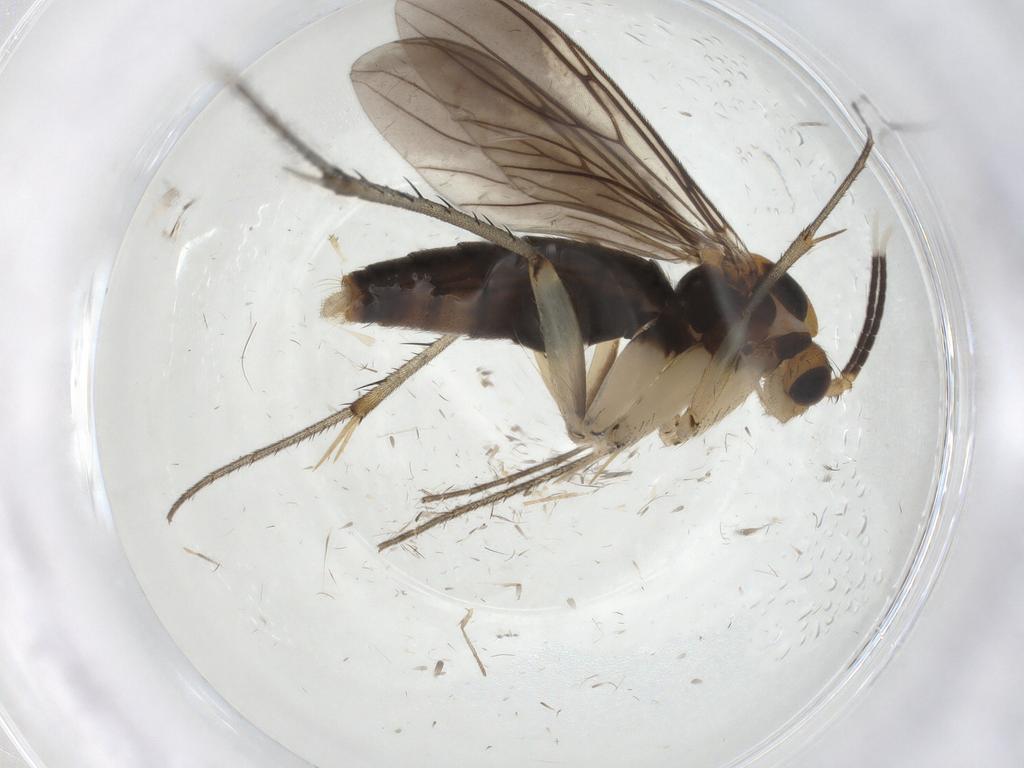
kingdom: Animalia
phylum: Arthropoda
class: Insecta
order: Diptera
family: Mycetophilidae
